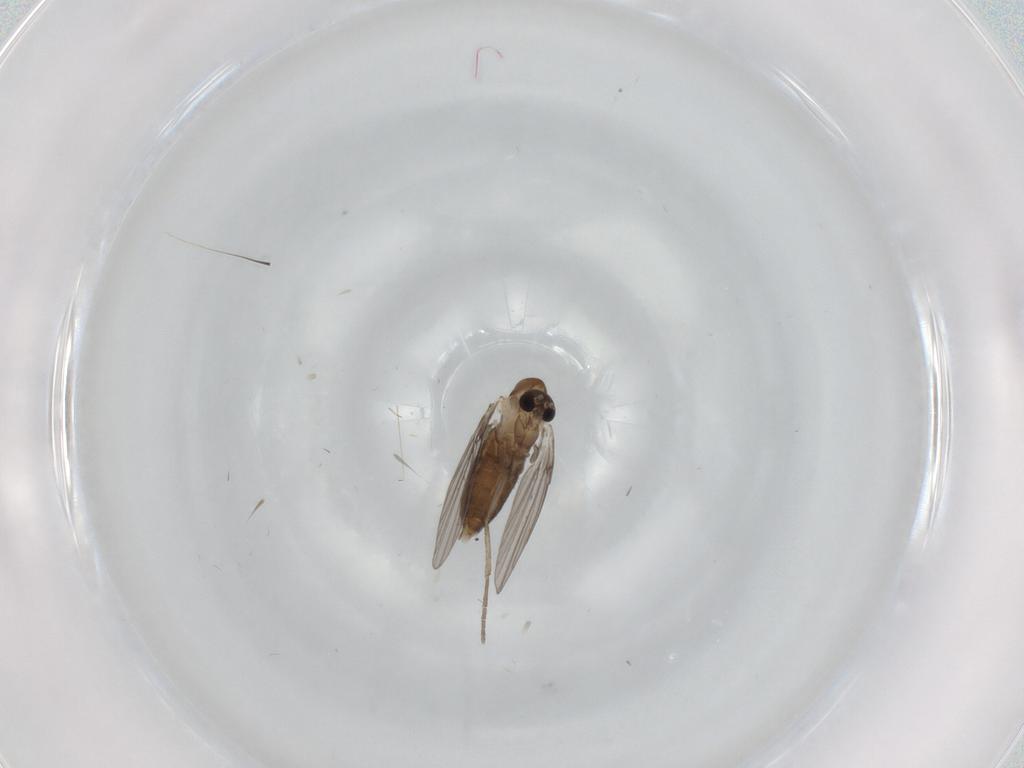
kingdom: Animalia
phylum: Arthropoda
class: Insecta
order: Diptera
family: Psychodidae
